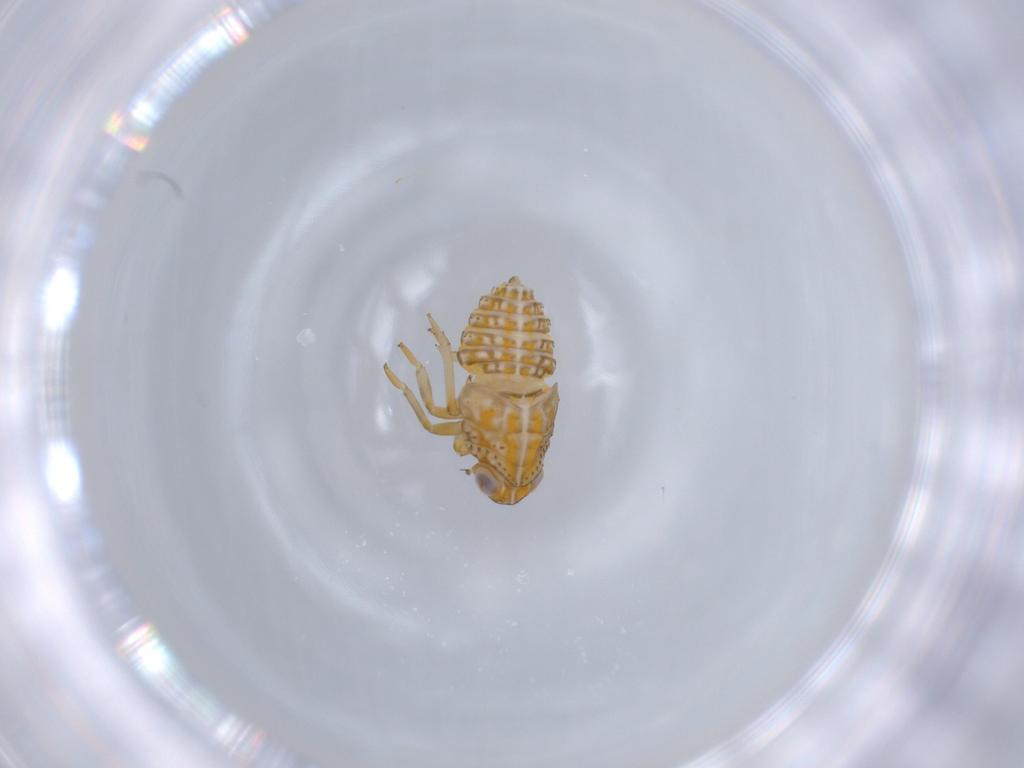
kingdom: Animalia
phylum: Arthropoda
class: Insecta
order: Hemiptera
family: Issidae
